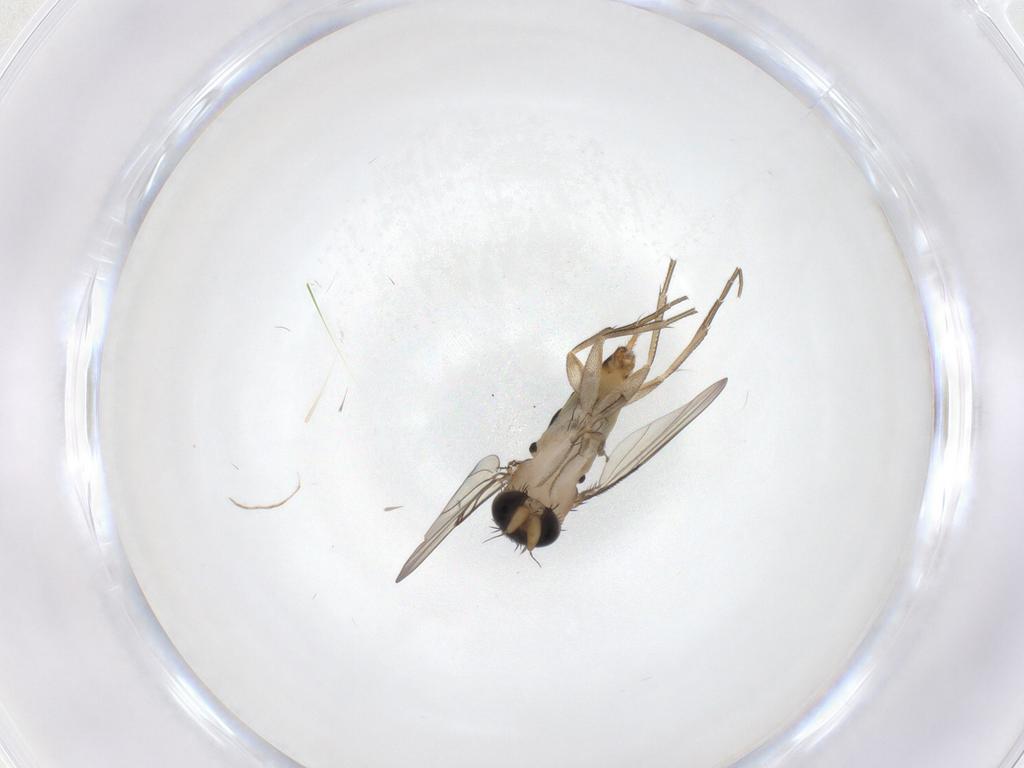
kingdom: Animalia
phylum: Arthropoda
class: Insecta
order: Diptera
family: Phoridae
